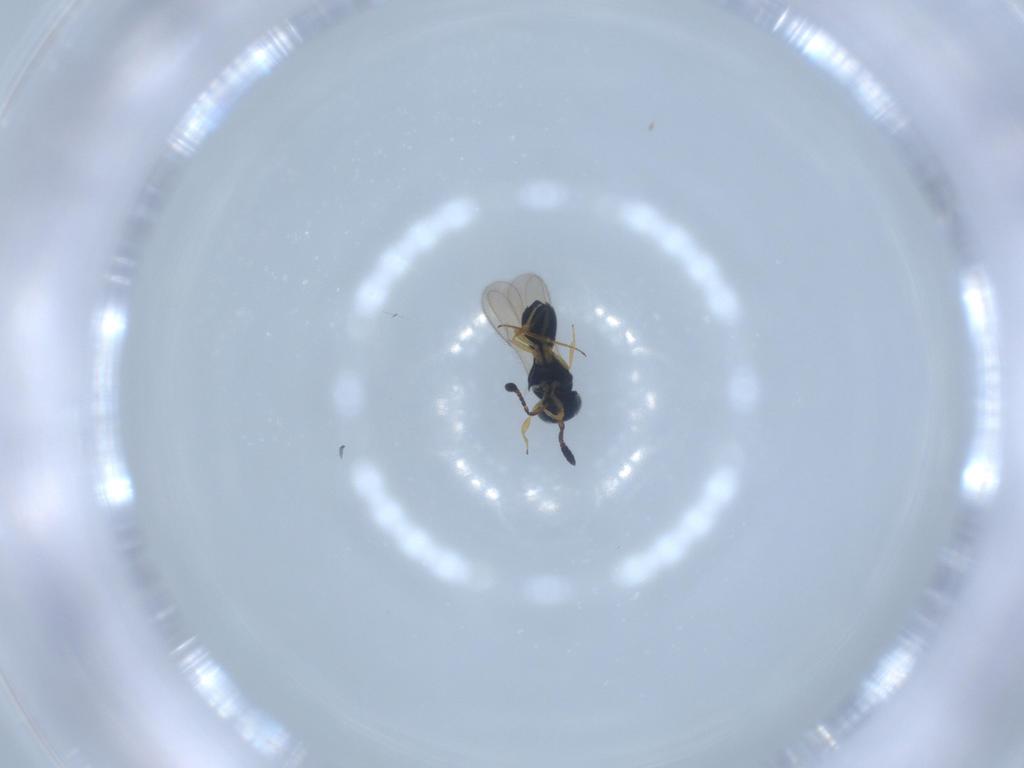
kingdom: Animalia
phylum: Arthropoda
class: Insecta
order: Hymenoptera
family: Scelionidae
